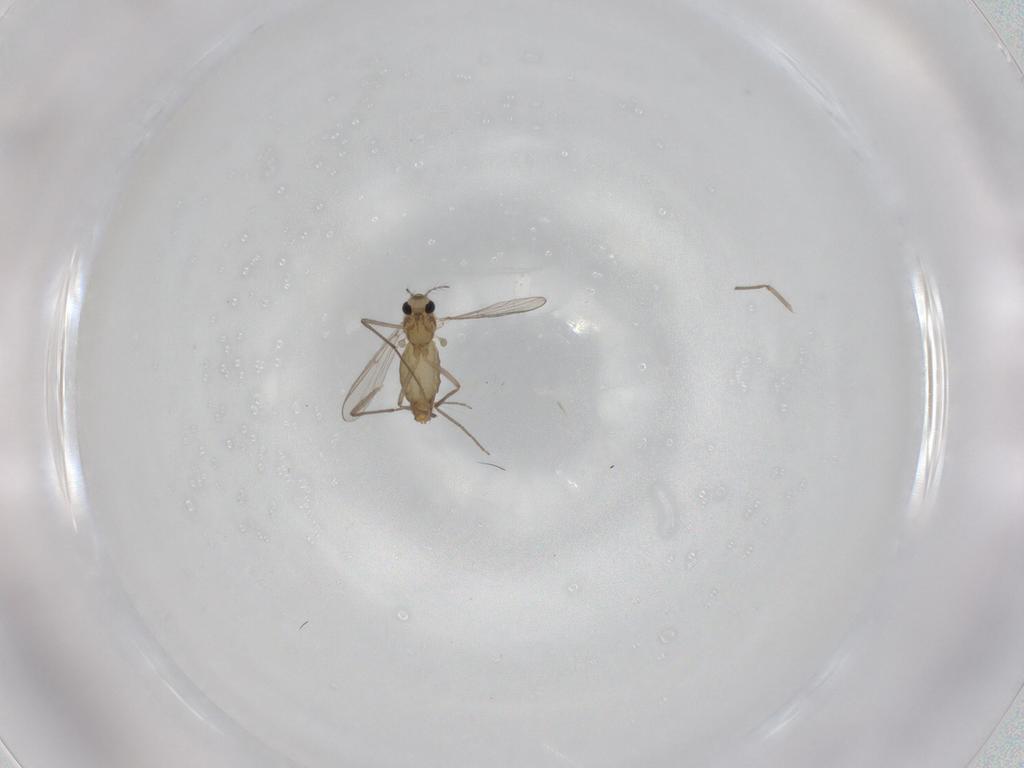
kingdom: Animalia
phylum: Arthropoda
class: Insecta
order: Diptera
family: Chironomidae
